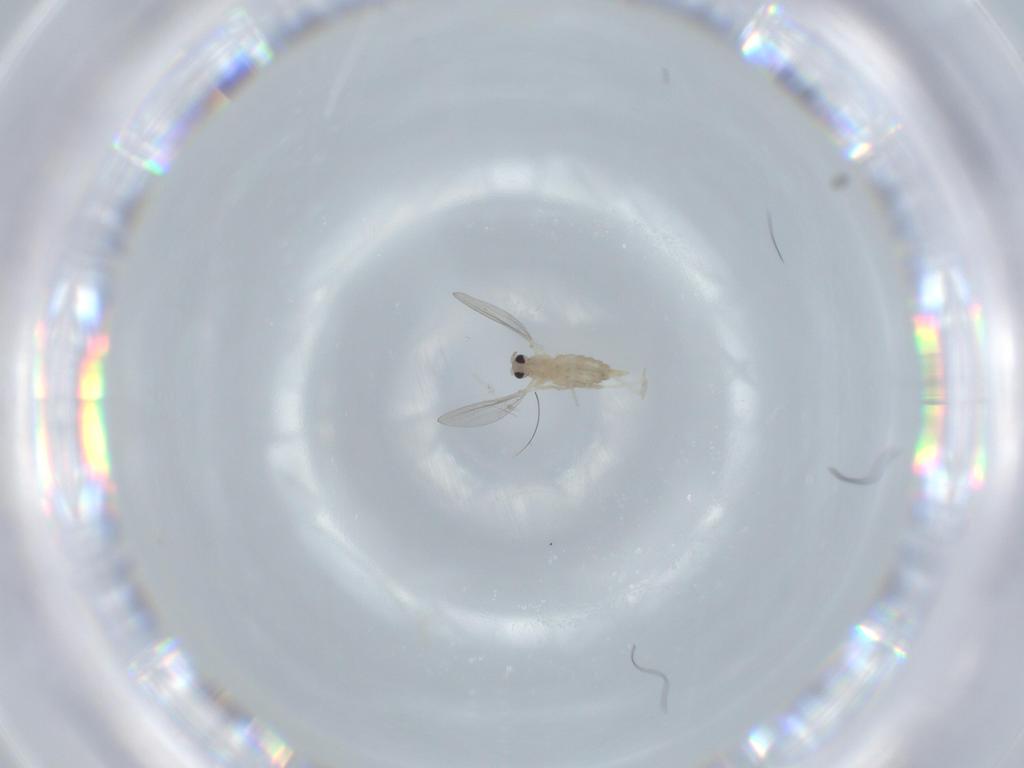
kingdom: Animalia
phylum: Arthropoda
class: Insecta
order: Diptera
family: Cecidomyiidae
